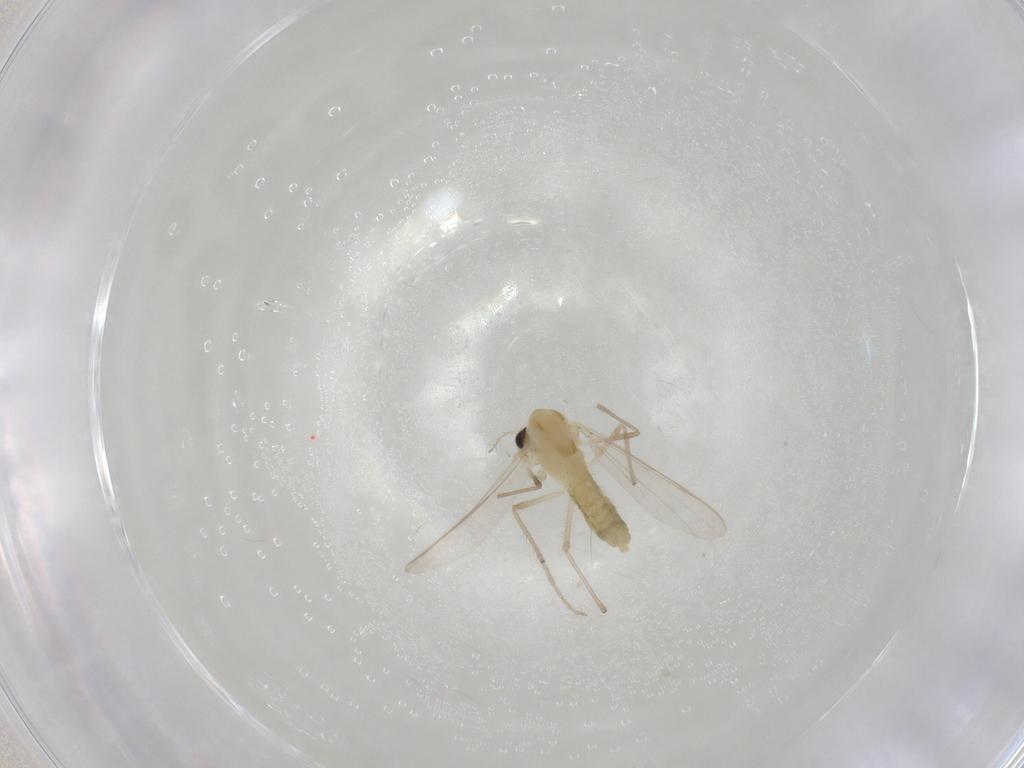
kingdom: Animalia
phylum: Arthropoda
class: Insecta
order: Diptera
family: Chironomidae
